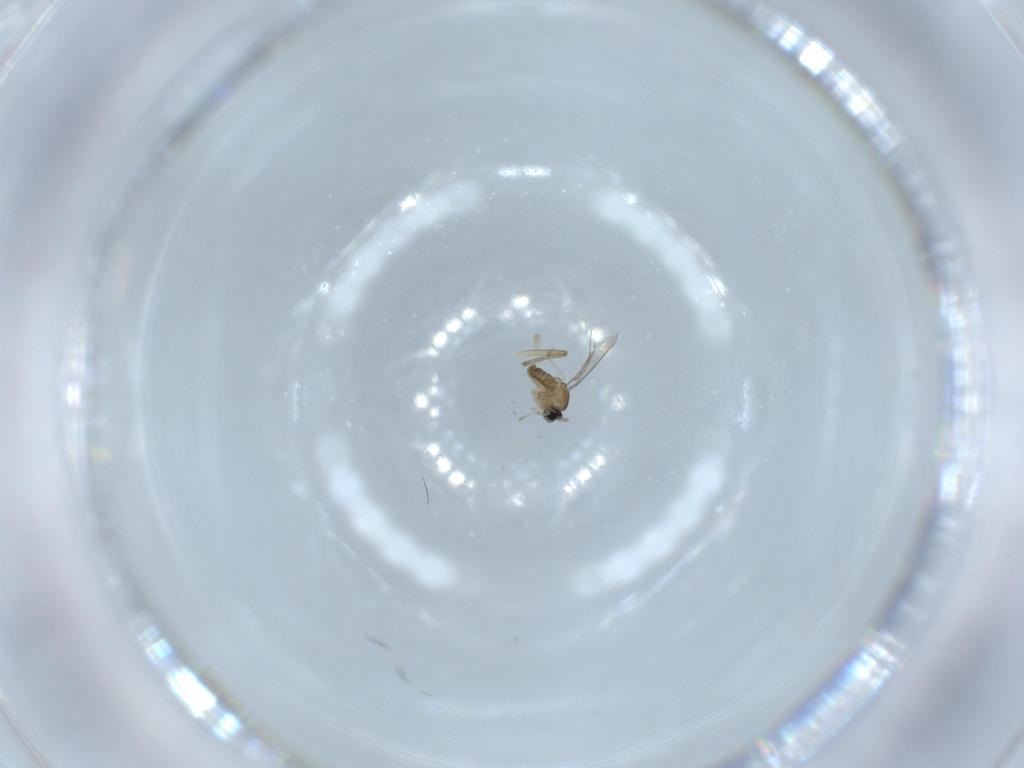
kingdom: Animalia
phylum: Arthropoda
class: Insecta
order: Diptera
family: Cecidomyiidae
